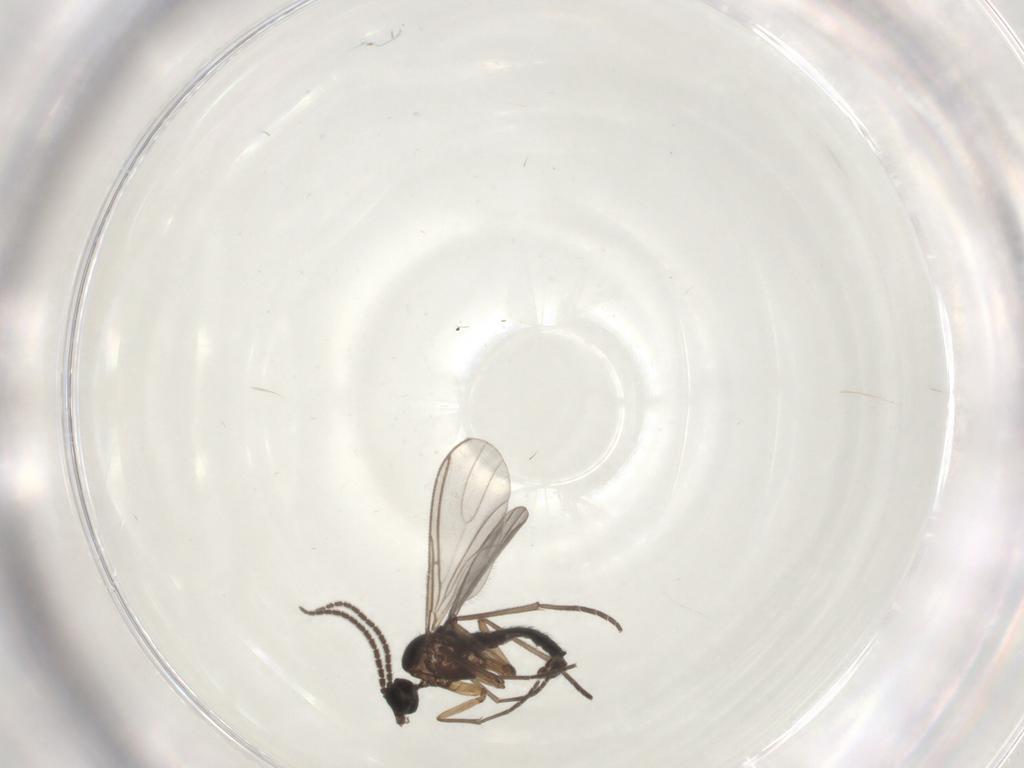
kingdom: Animalia
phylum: Arthropoda
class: Insecta
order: Diptera
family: Sciaridae
